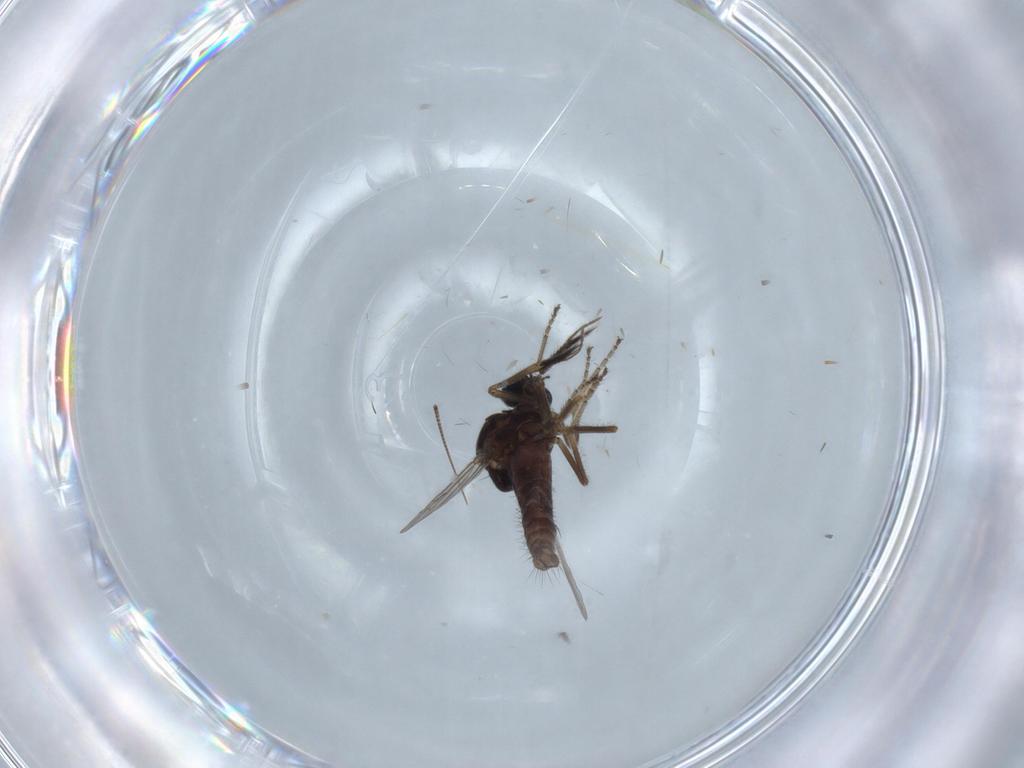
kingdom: Animalia
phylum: Arthropoda
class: Insecta
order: Diptera
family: Ceratopogonidae
